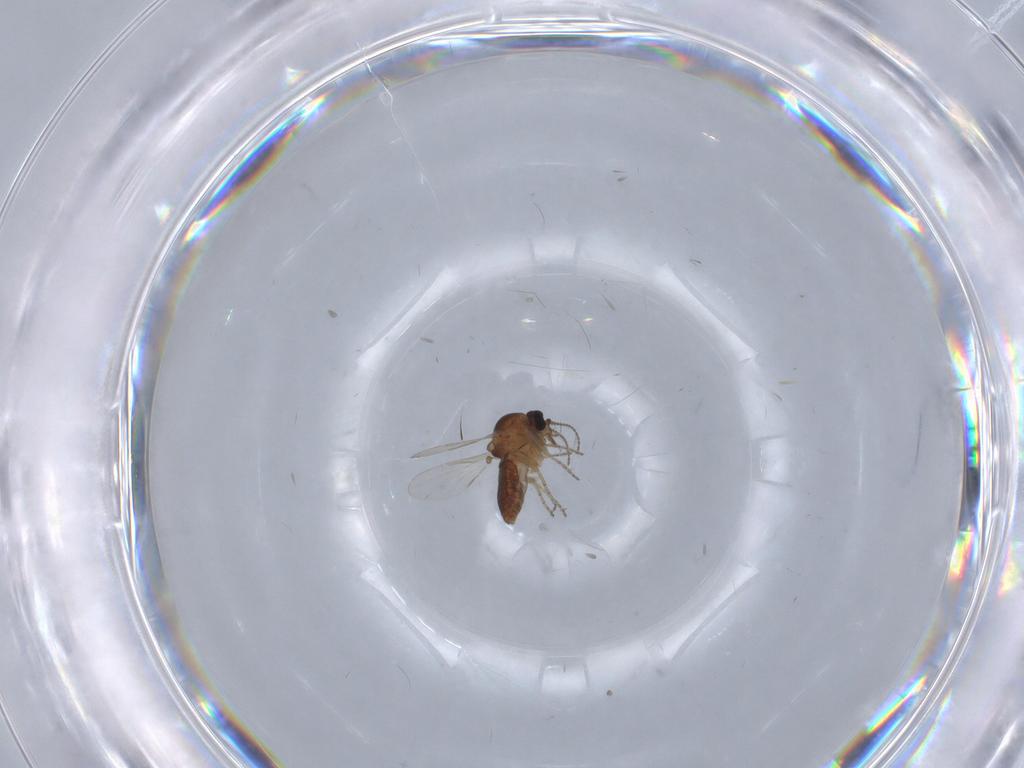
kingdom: Animalia
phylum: Arthropoda
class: Insecta
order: Diptera
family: Ceratopogonidae
